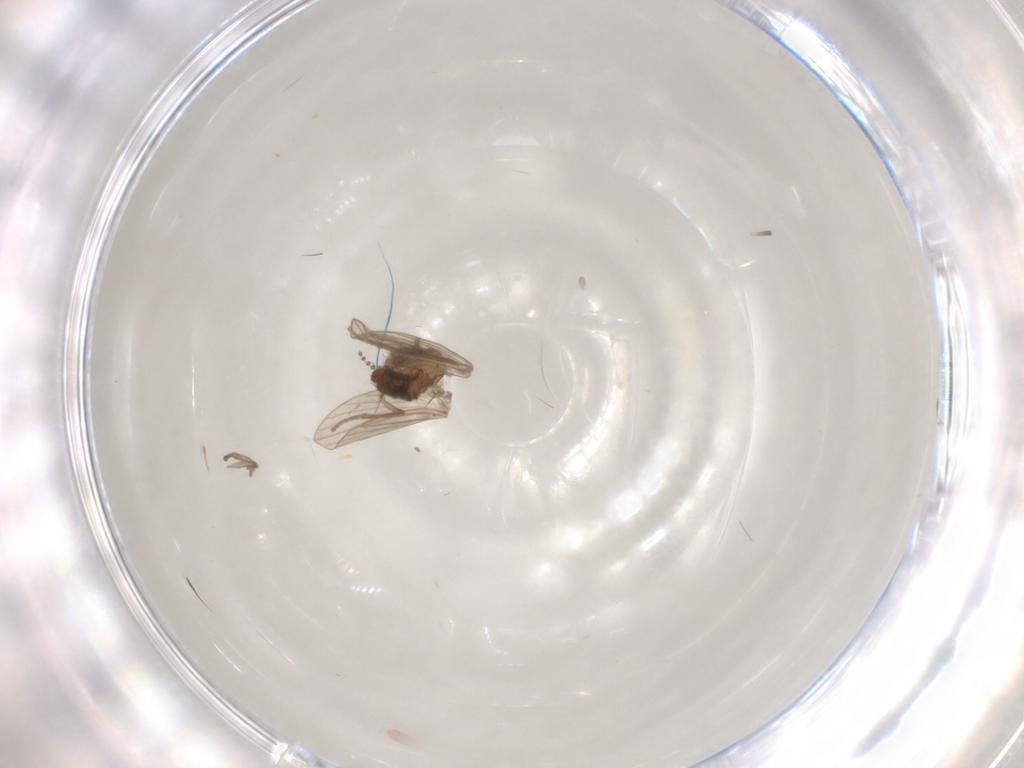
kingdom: Animalia
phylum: Arthropoda
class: Insecta
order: Diptera
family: Psychodidae
